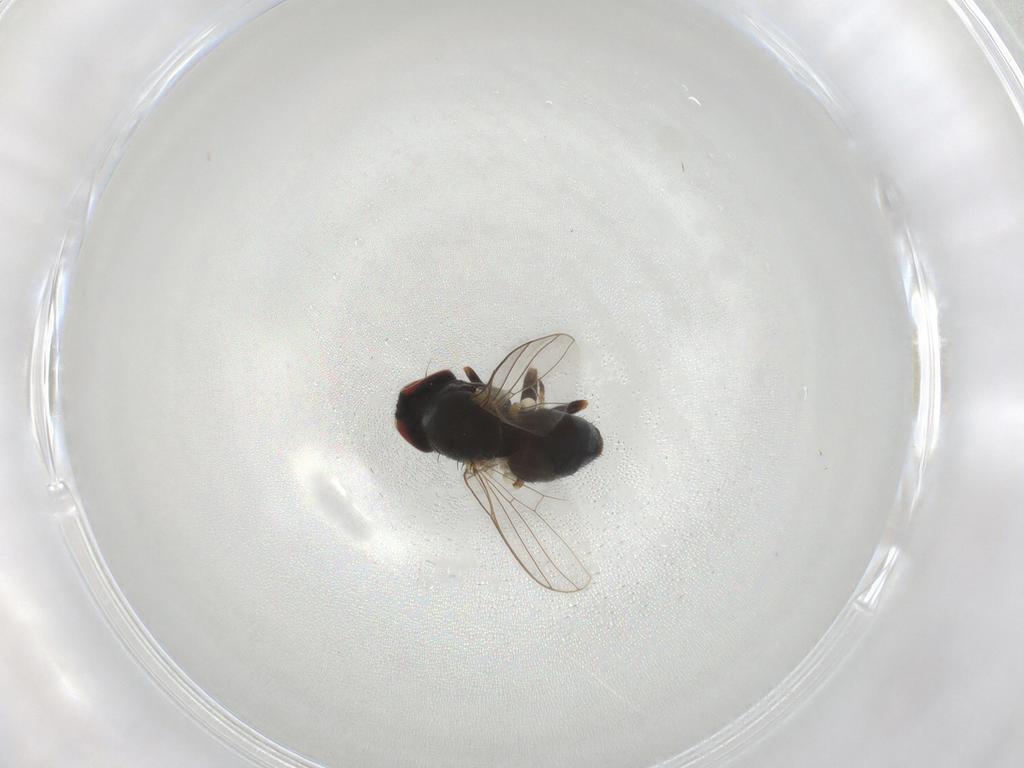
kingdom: Animalia
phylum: Arthropoda
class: Insecta
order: Diptera
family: Chamaemyiidae
